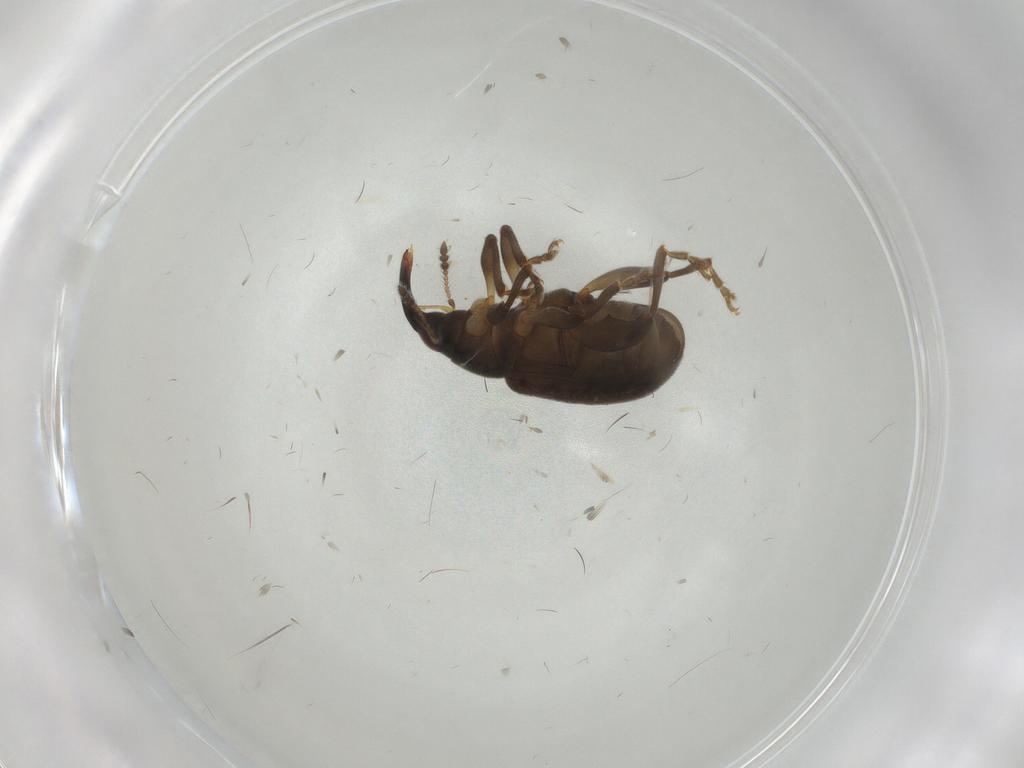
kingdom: Animalia
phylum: Arthropoda
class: Insecta
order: Coleoptera
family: Curculionidae
